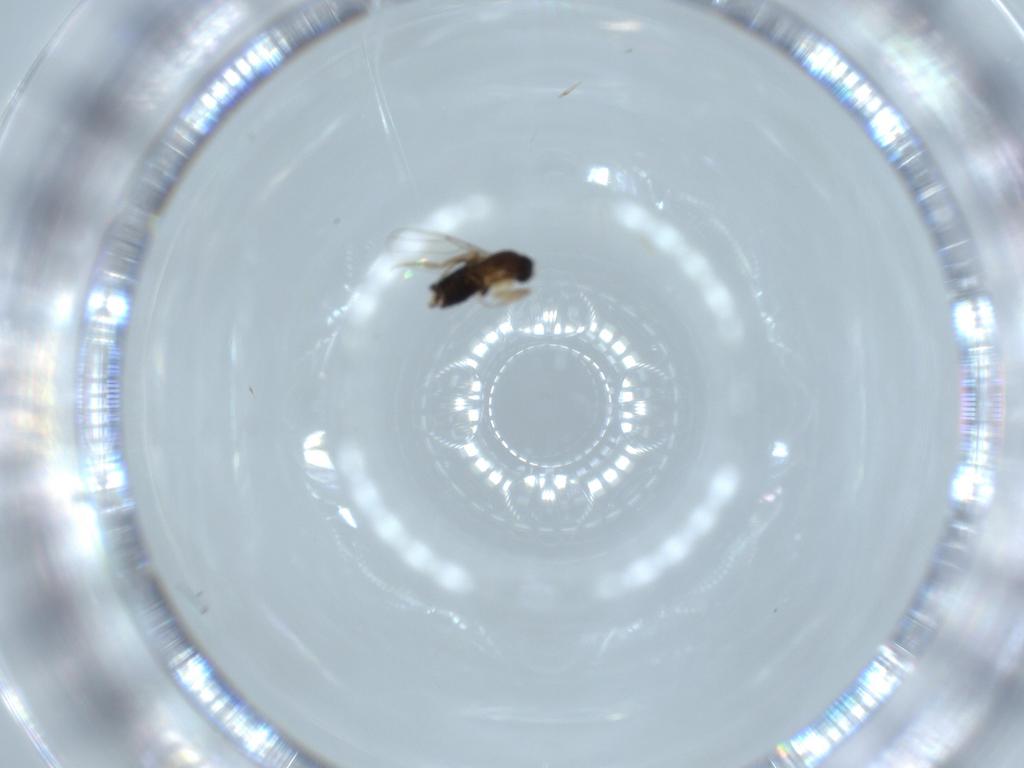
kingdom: Animalia
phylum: Arthropoda
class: Insecta
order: Diptera
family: Phoridae
